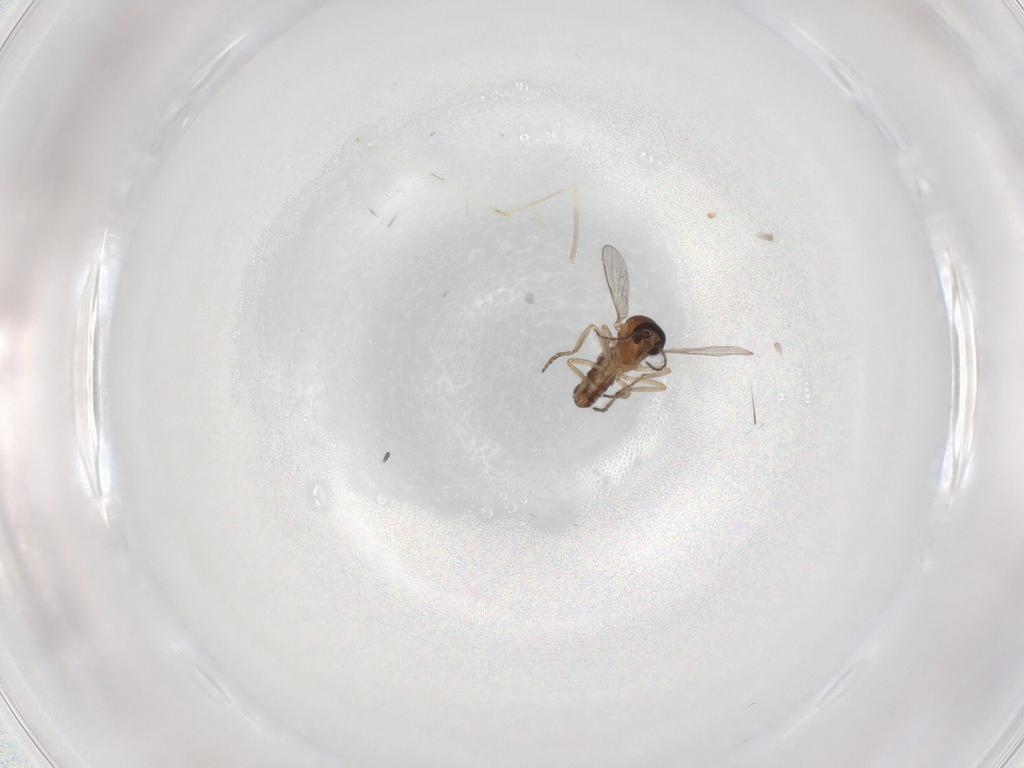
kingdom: Animalia
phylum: Arthropoda
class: Insecta
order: Diptera
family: Ceratopogonidae
